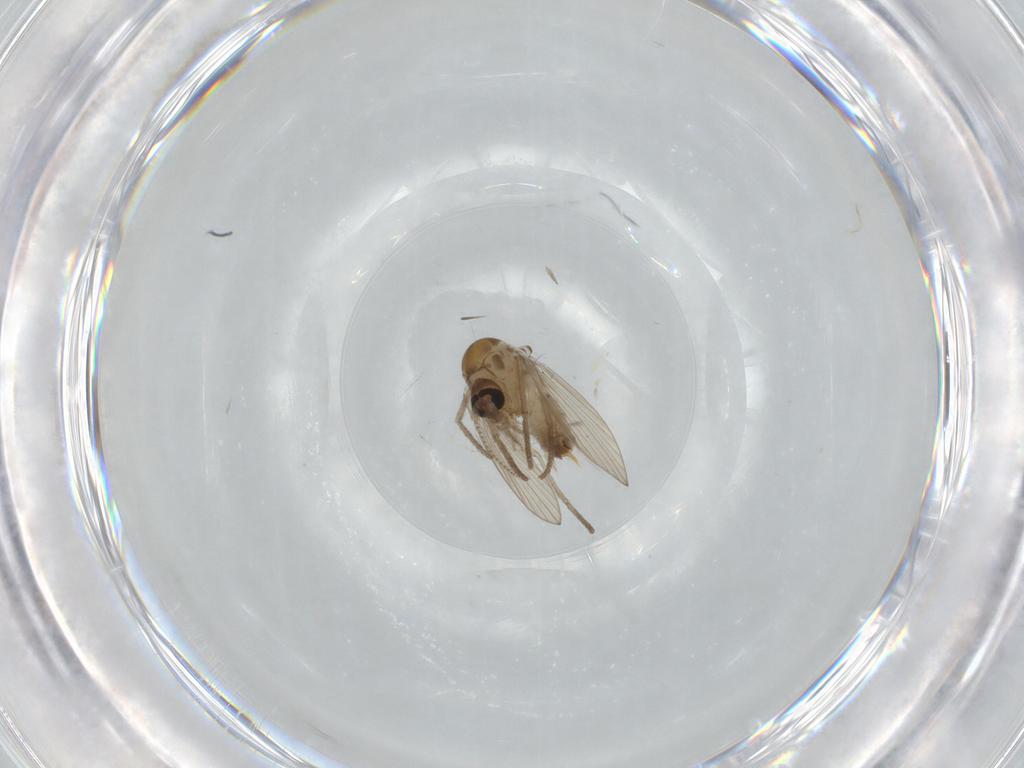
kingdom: Animalia
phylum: Arthropoda
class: Insecta
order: Diptera
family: Psychodidae
